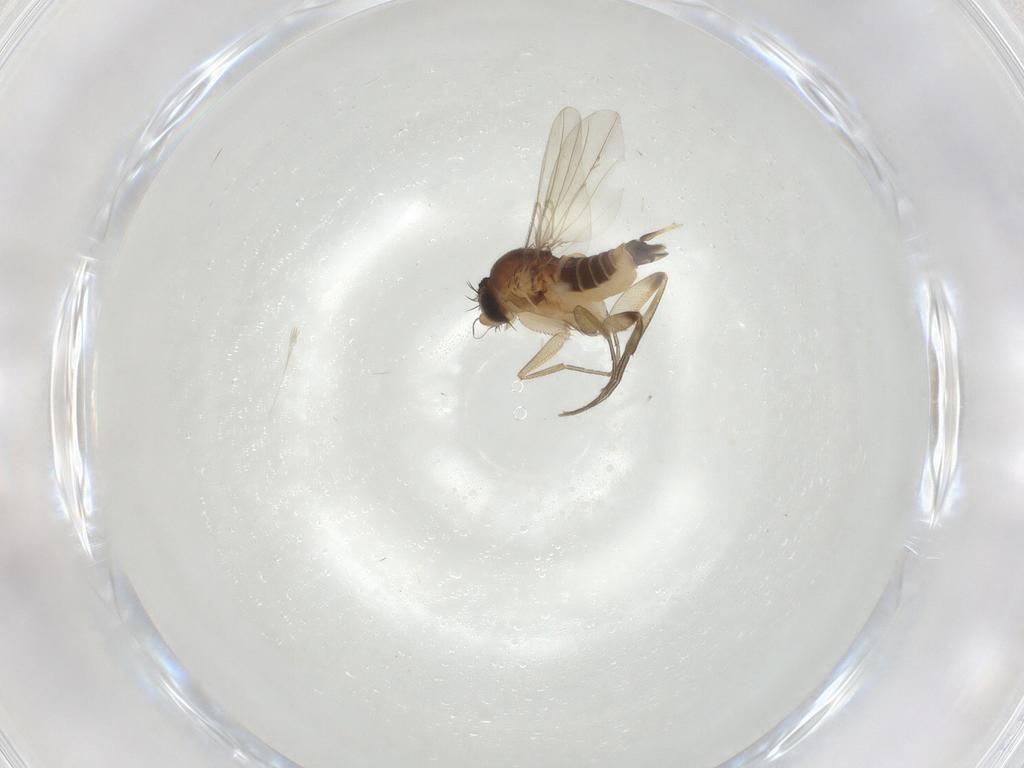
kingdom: Animalia
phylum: Arthropoda
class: Insecta
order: Diptera
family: Phoridae
